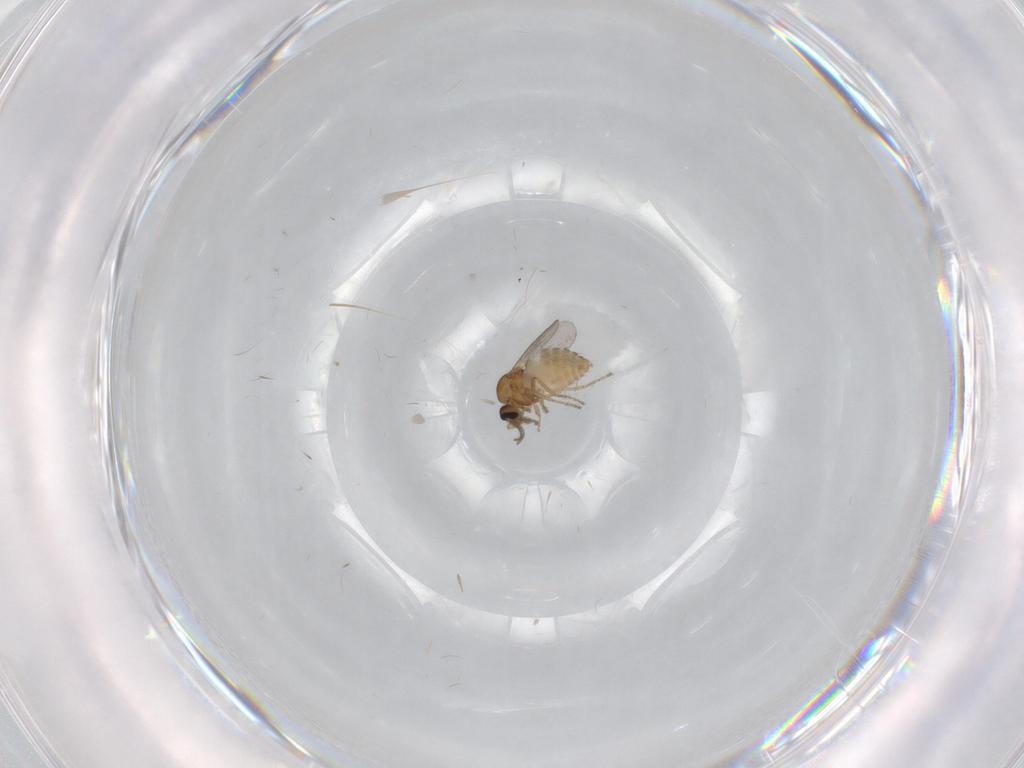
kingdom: Animalia
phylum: Arthropoda
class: Insecta
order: Diptera
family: Ceratopogonidae
